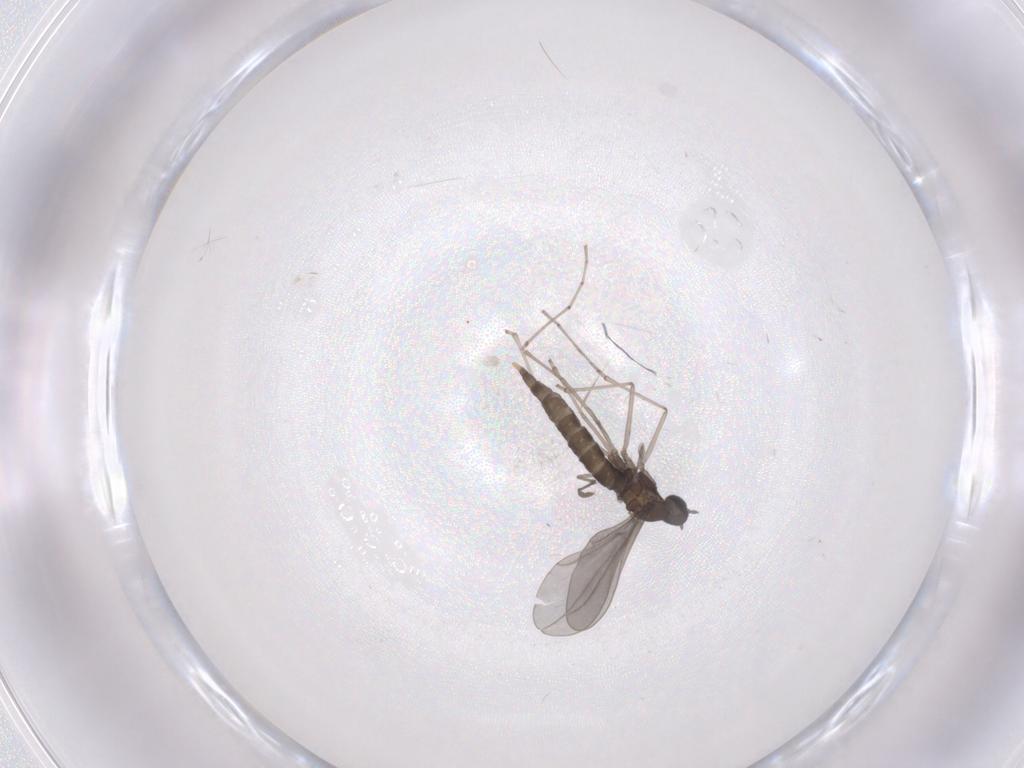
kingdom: Animalia
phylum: Arthropoda
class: Insecta
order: Diptera
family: Cecidomyiidae
